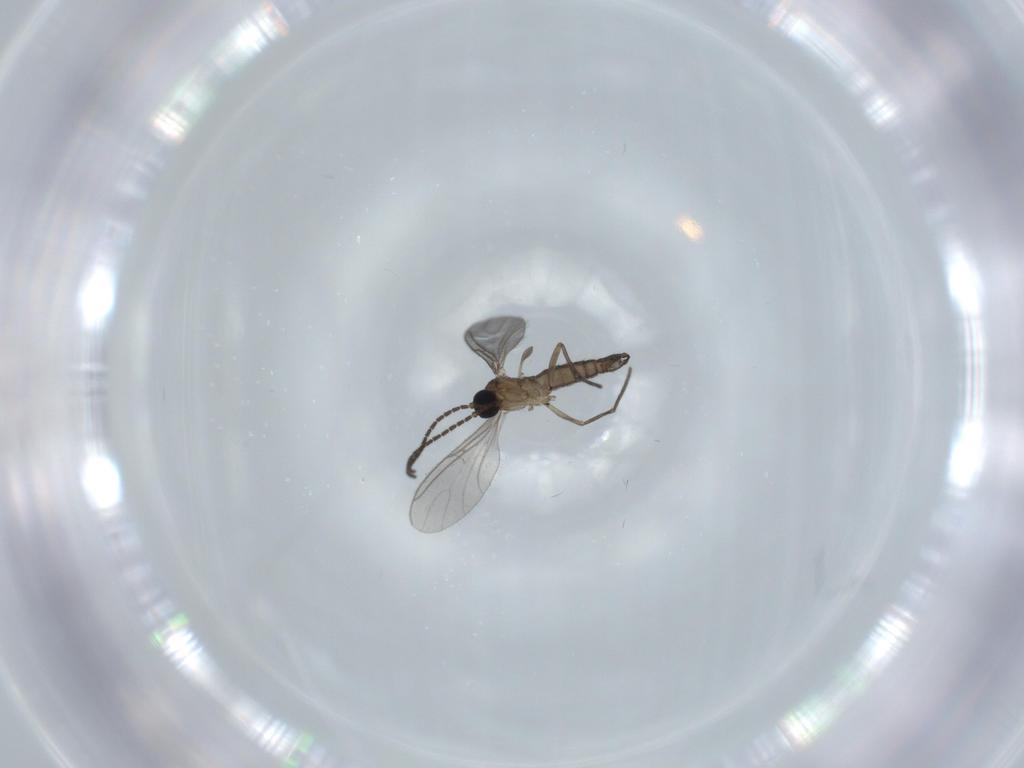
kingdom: Animalia
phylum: Arthropoda
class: Insecta
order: Diptera
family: Sciaridae
